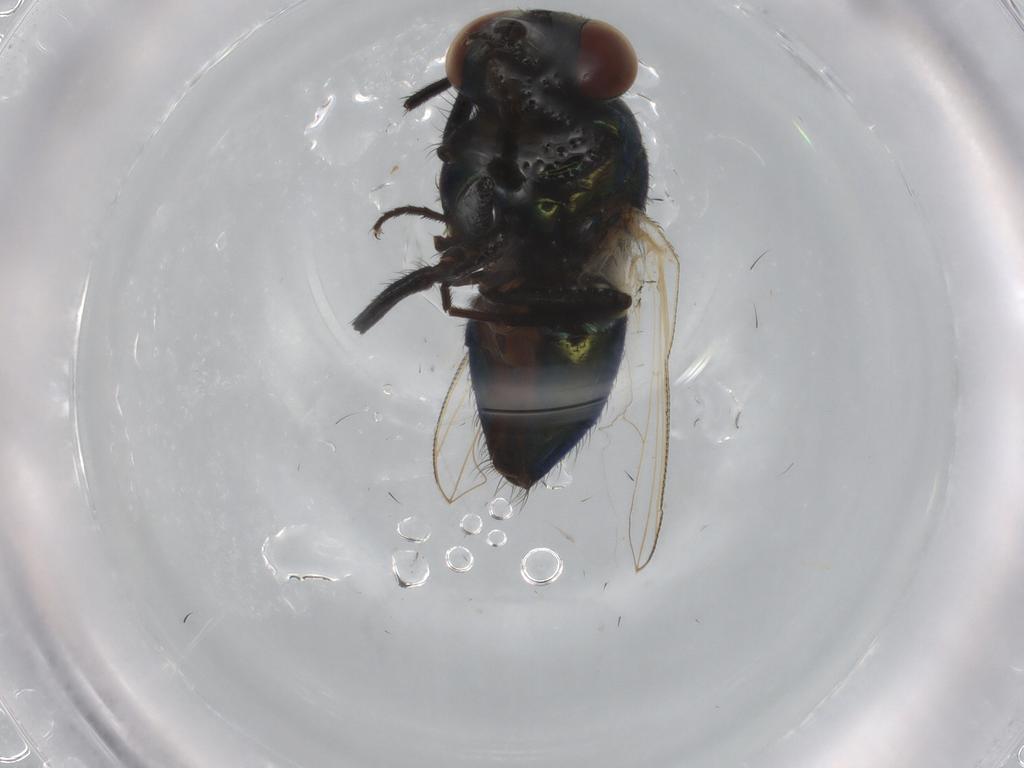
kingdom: Animalia
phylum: Arthropoda
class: Insecta
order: Diptera
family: Muscidae
